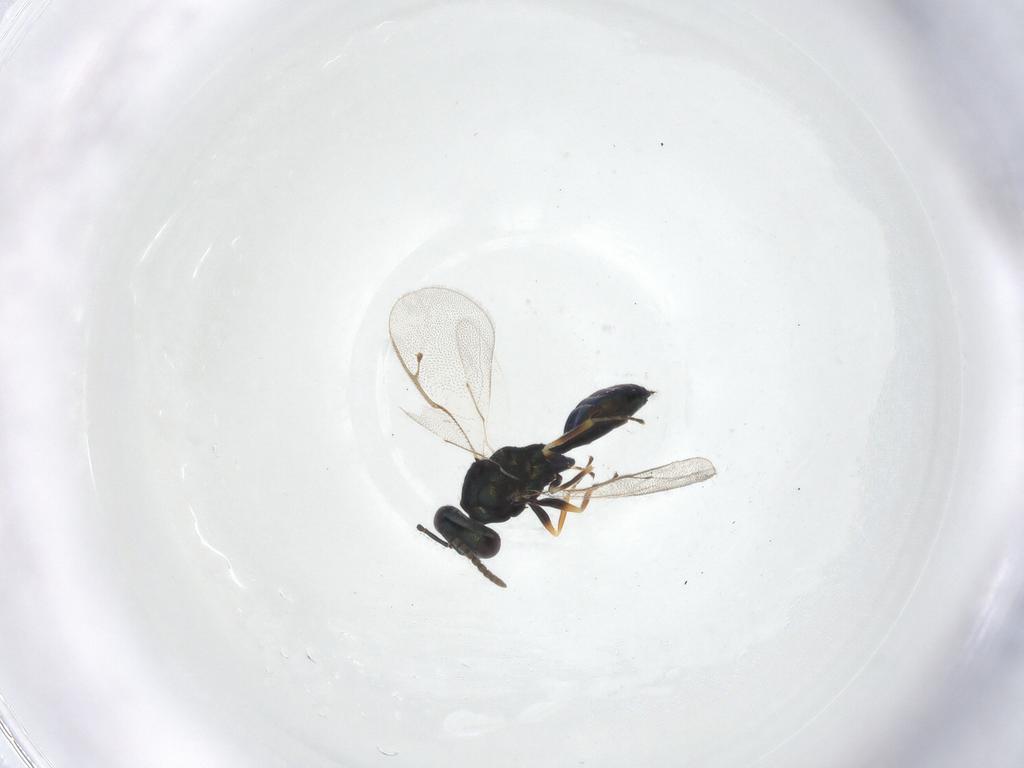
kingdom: Animalia
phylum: Arthropoda
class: Insecta
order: Hymenoptera
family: Pteromalidae
